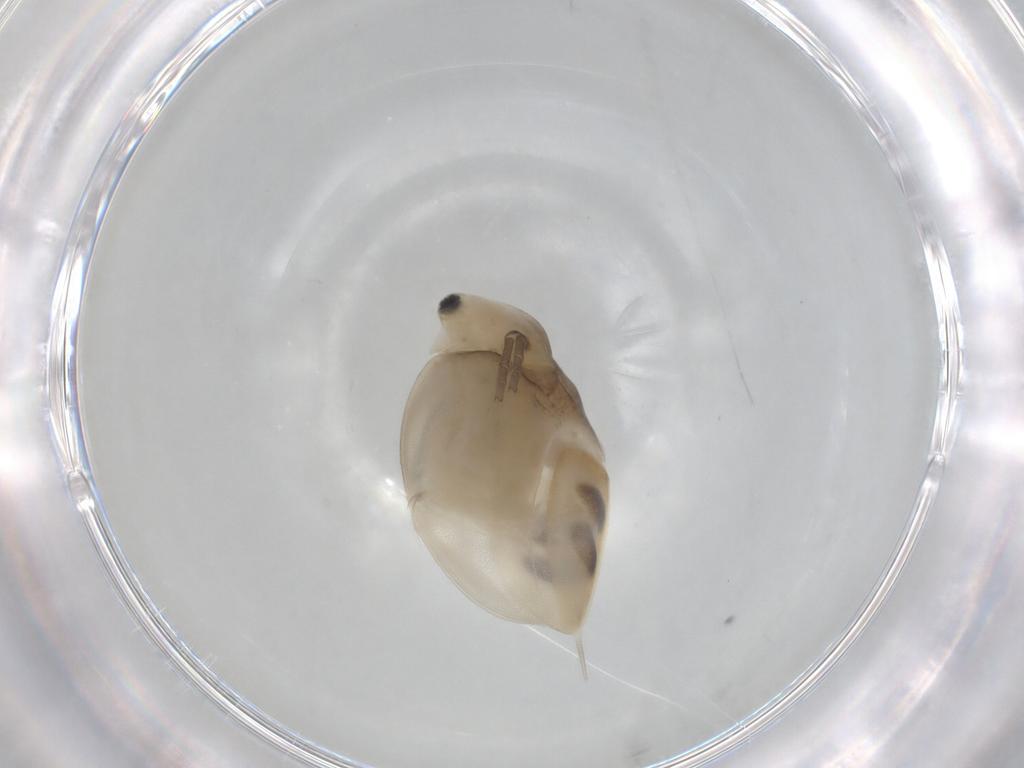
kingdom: Animalia
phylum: Arthropoda
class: Branchiopoda
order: Diplostraca
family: Daphniidae
